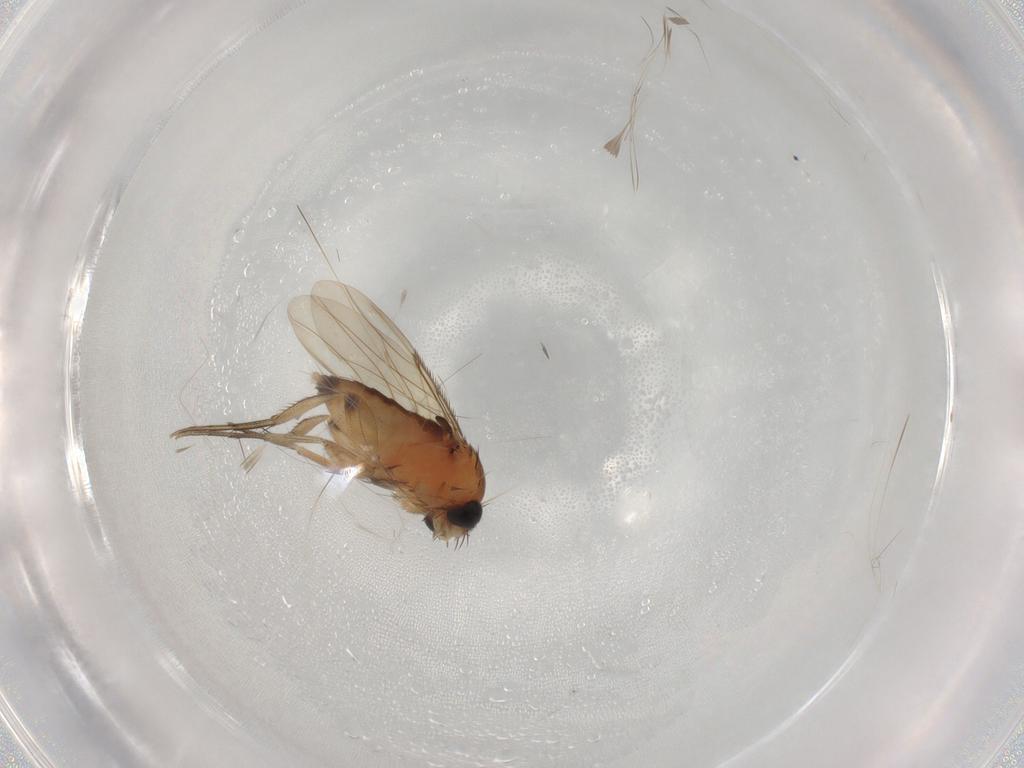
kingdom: Animalia
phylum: Arthropoda
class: Insecta
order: Diptera
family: Phoridae
